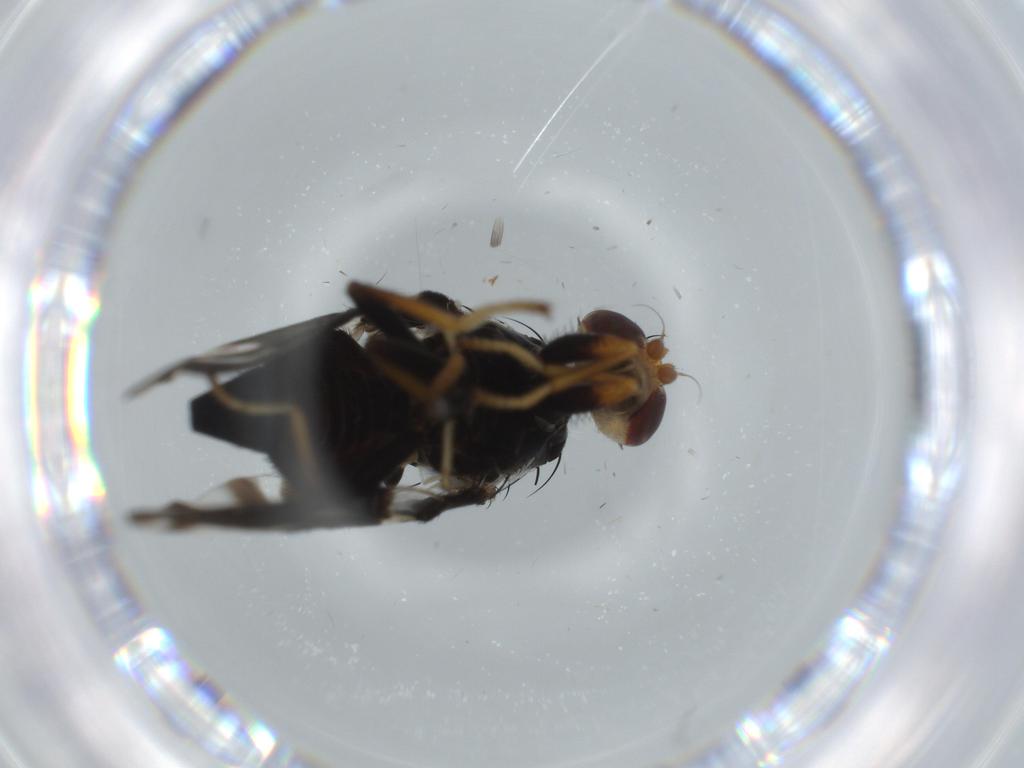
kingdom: Animalia
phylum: Arthropoda
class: Insecta
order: Diptera
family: Tephritidae
